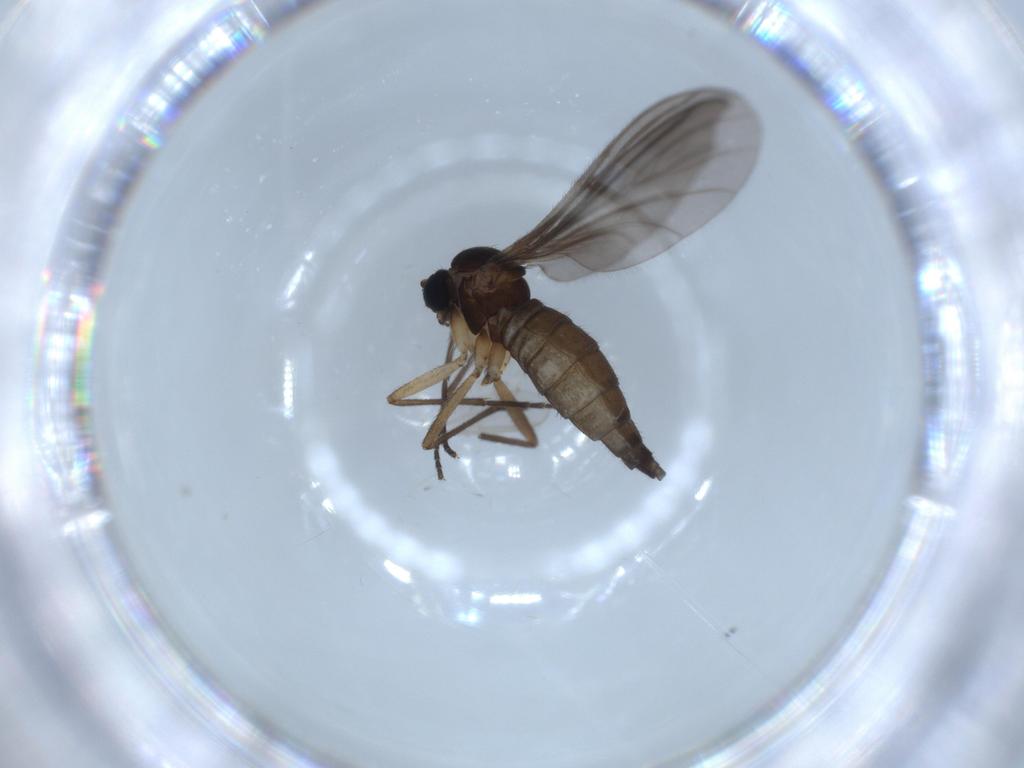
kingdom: Animalia
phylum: Arthropoda
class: Insecta
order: Diptera
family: Sciaridae
